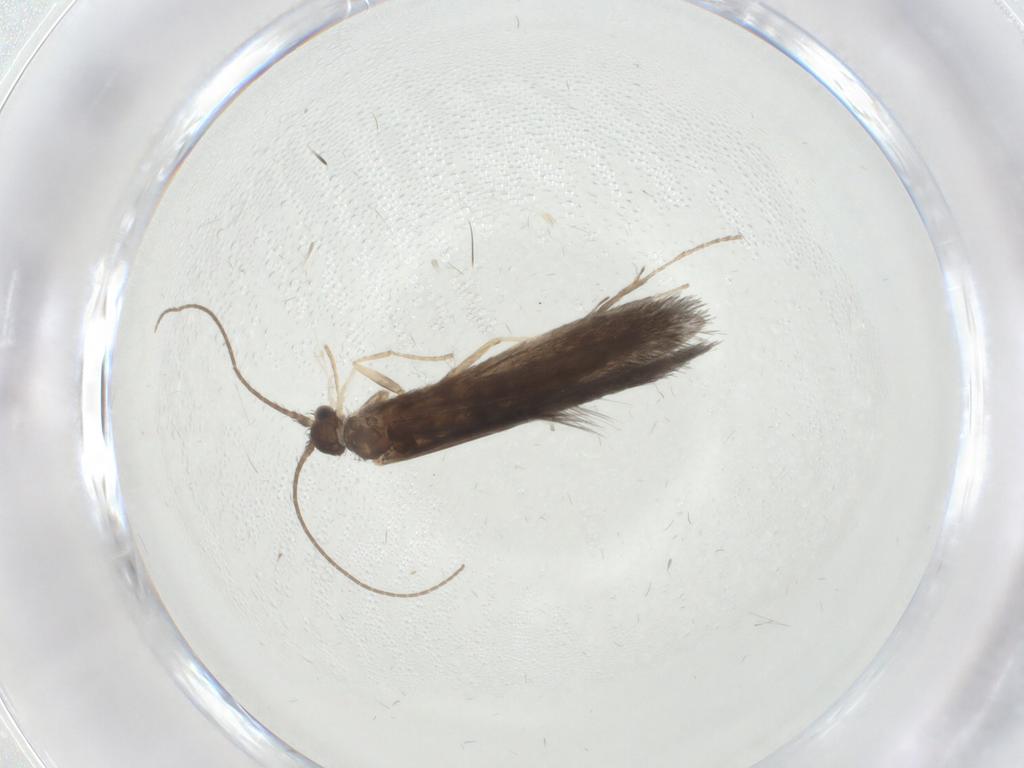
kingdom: Animalia
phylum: Arthropoda
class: Insecta
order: Trichoptera
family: Xiphocentronidae
